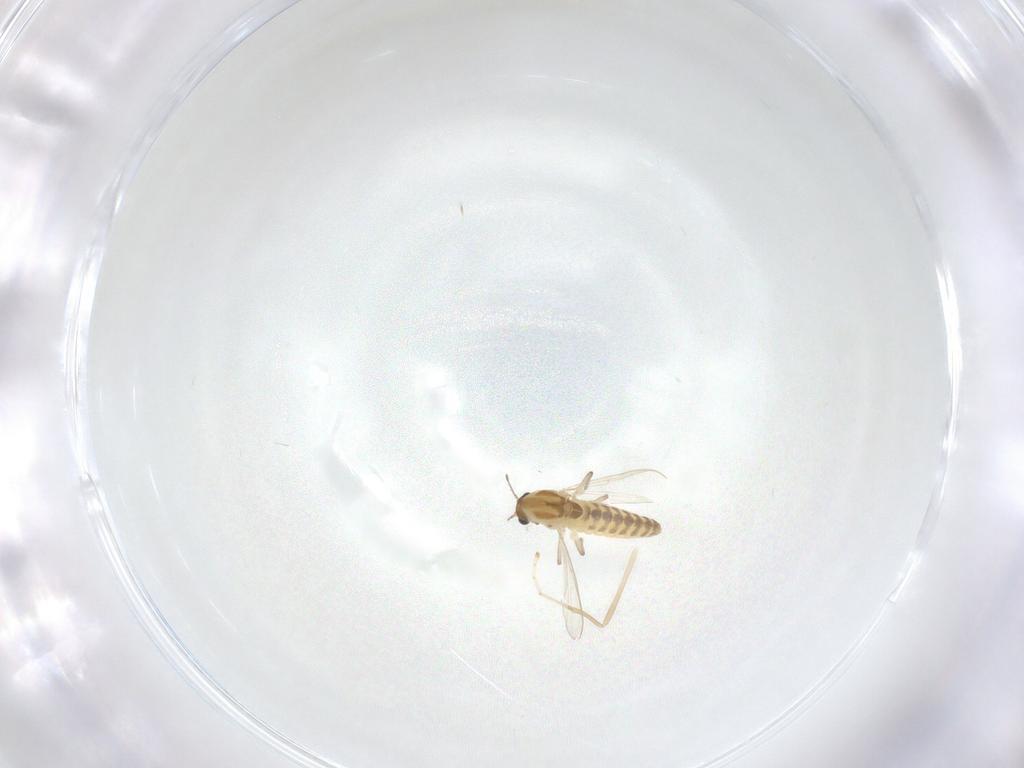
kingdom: Animalia
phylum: Arthropoda
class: Insecta
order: Diptera
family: Chironomidae
